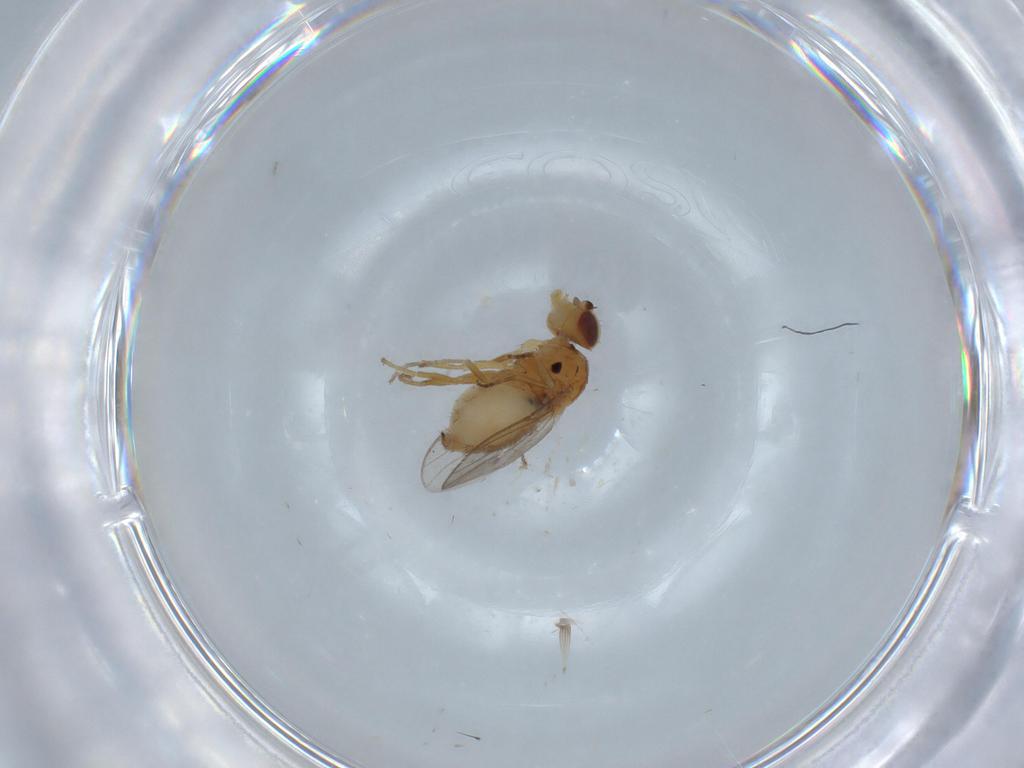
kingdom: Animalia
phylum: Arthropoda
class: Insecta
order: Diptera
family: Chloropidae
